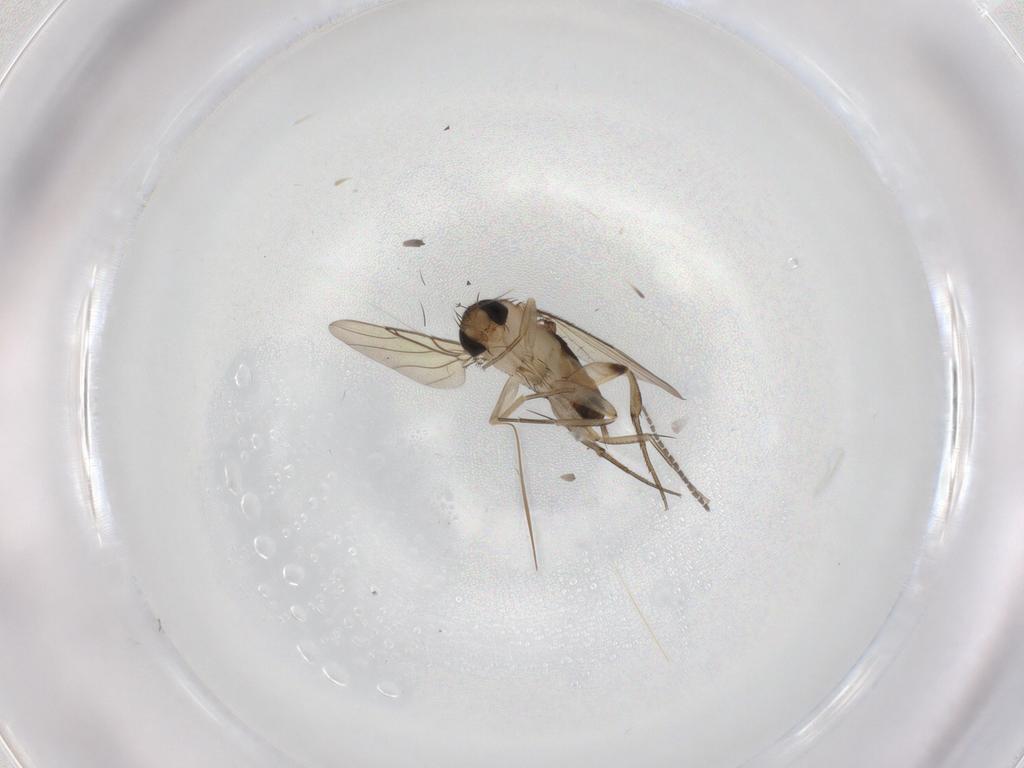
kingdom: Animalia
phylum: Arthropoda
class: Insecta
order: Diptera
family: Sciaridae
